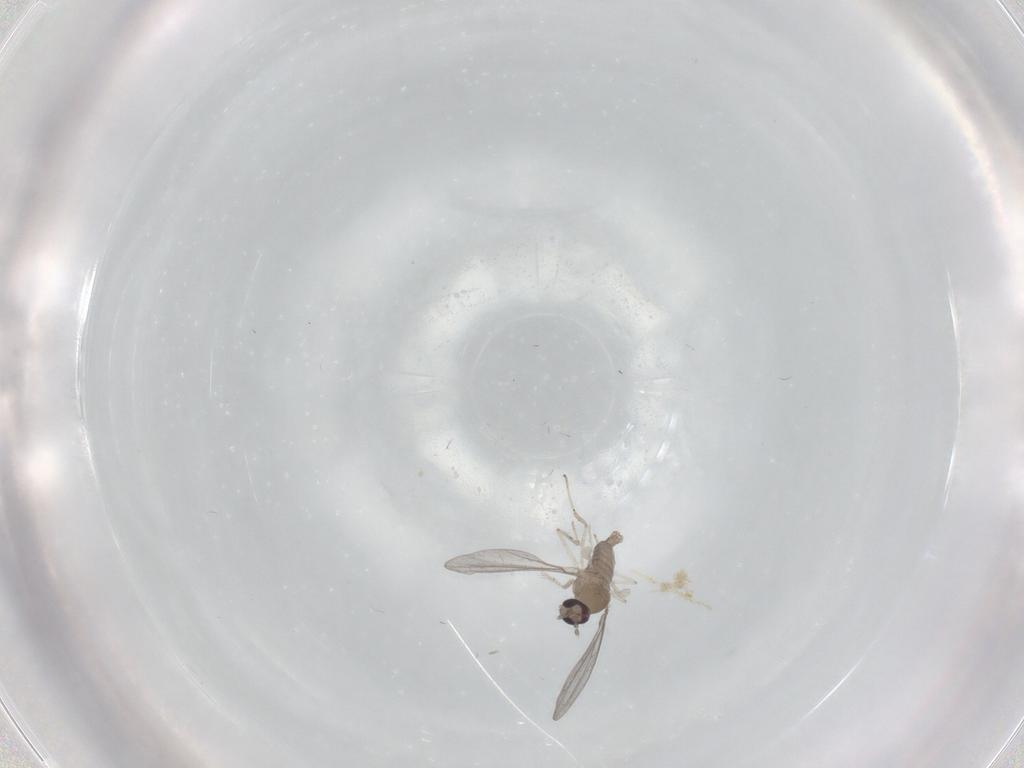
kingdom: Animalia
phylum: Arthropoda
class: Insecta
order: Diptera
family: Cecidomyiidae
